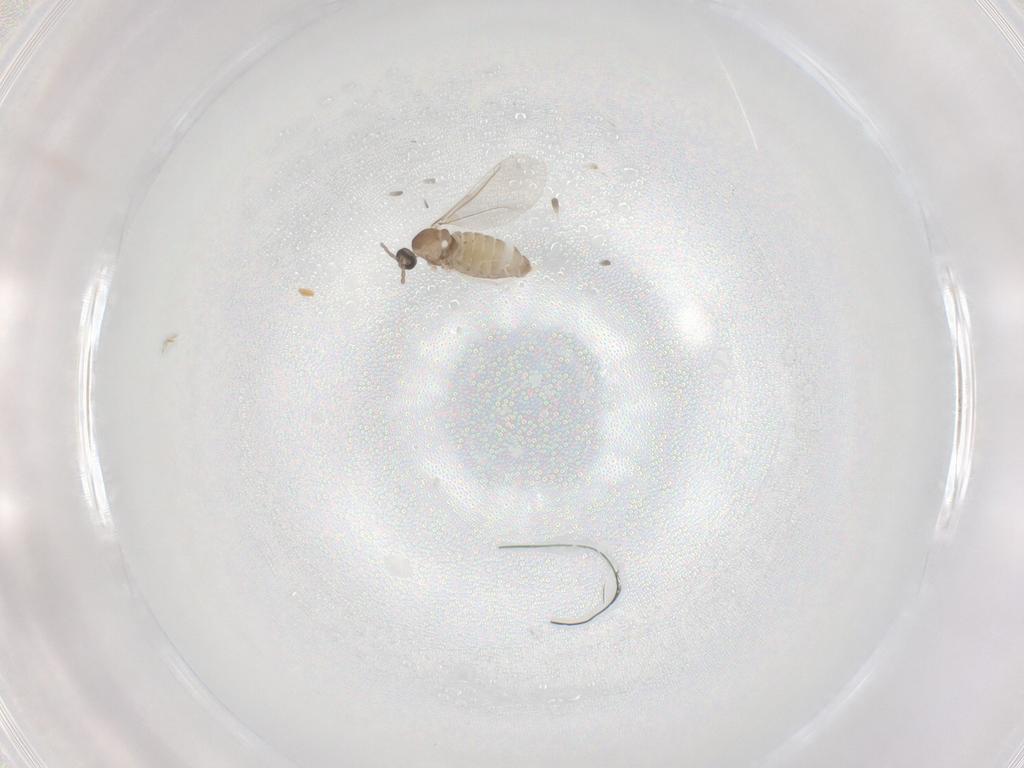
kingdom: Animalia
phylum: Arthropoda
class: Insecta
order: Diptera
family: Cecidomyiidae
